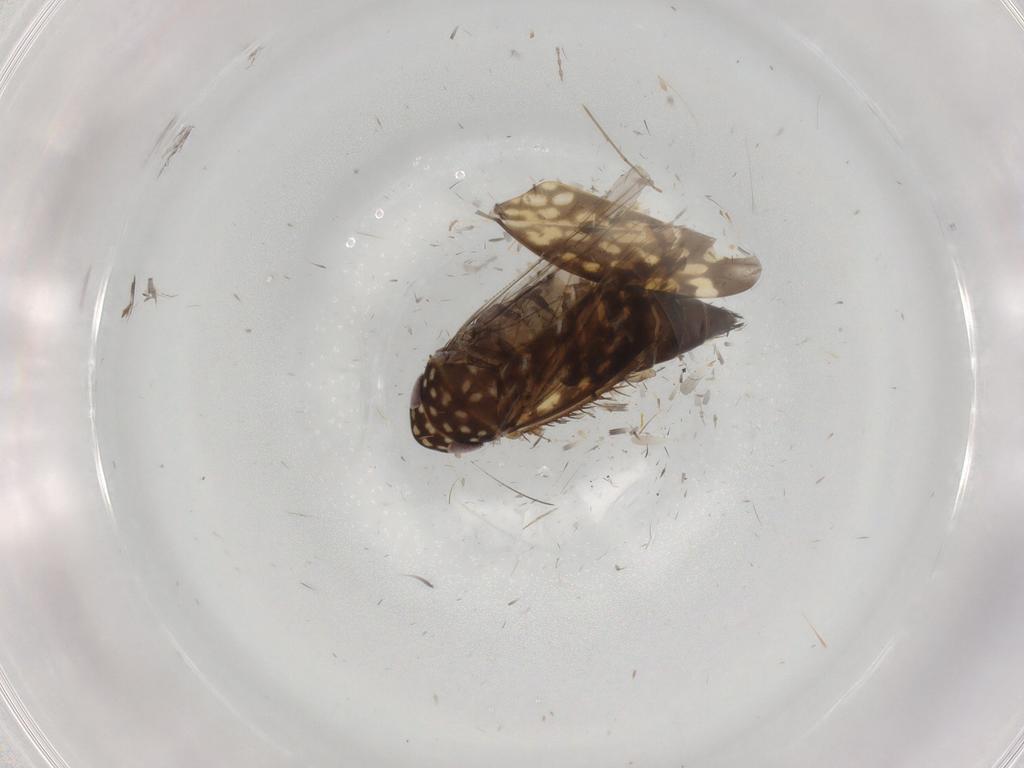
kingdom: Animalia
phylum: Arthropoda
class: Insecta
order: Hemiptera
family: Cicadellidae
